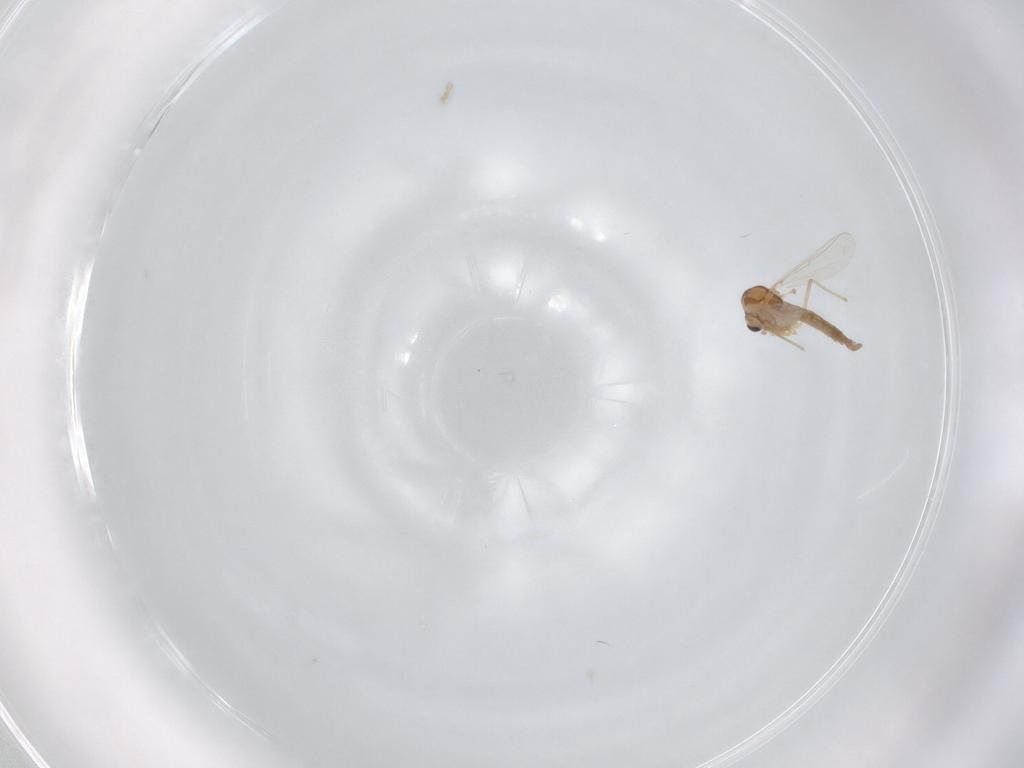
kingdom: Animalia
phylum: Arthropoda
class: Insecta
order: Diptera
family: Chironomidae
